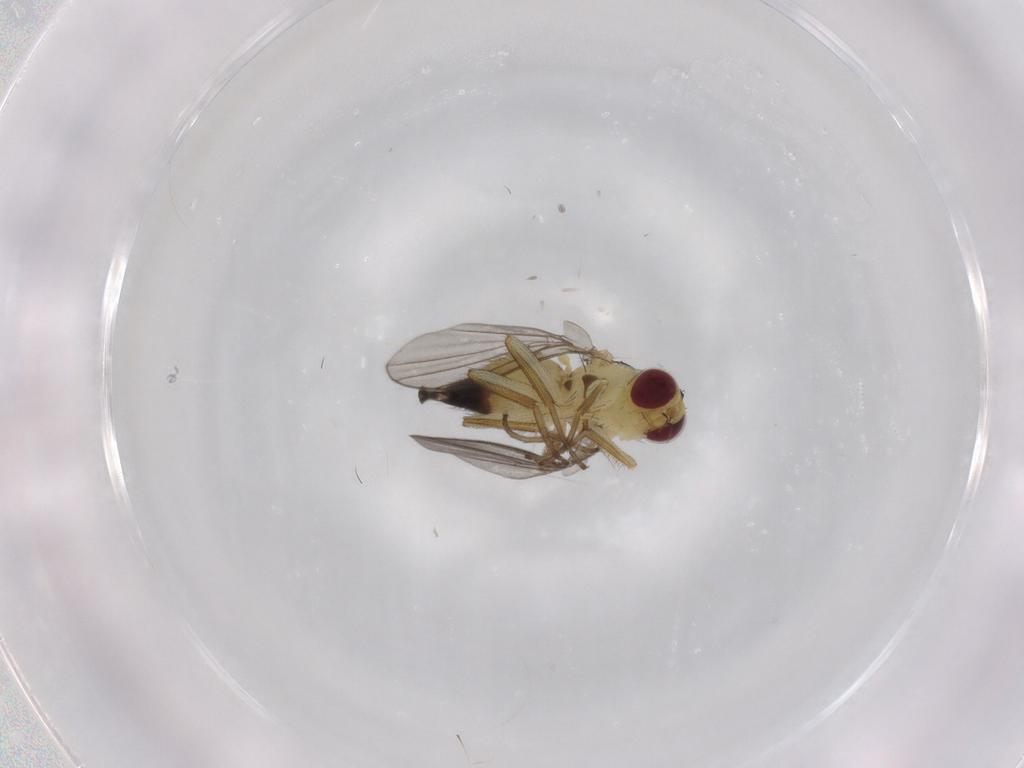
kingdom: Animalia
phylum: Arthropoda
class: Insecta
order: Diptera
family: Agromyzidae
